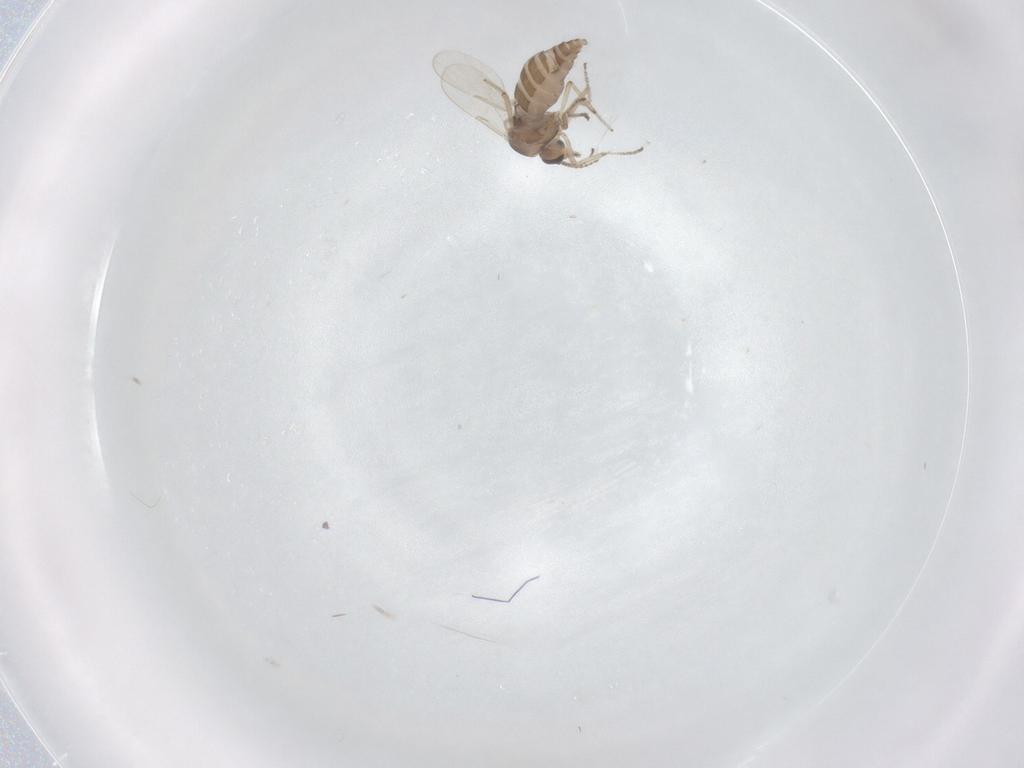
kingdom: Animalia
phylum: Arthropoda
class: Insecta
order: Diptera
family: Ceratopogonidae
